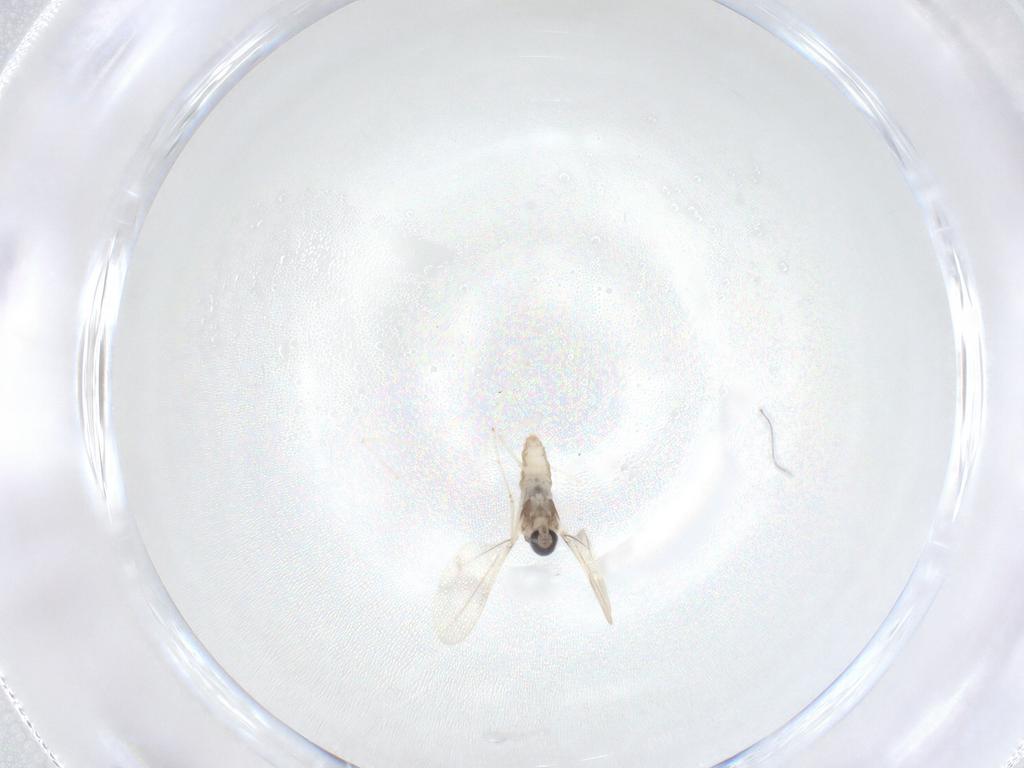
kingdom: Animalia
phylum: Arthropoda
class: Insecta
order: Diptera
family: Cecidomyiidae
